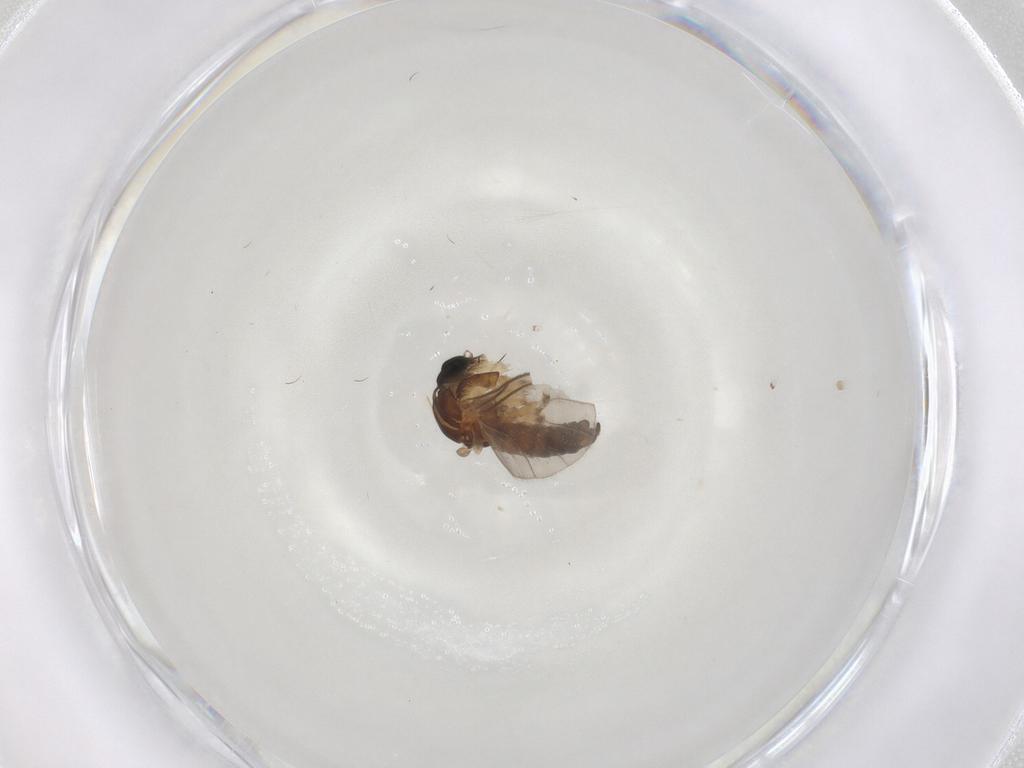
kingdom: Animalia
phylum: Arthropoda
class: Insecta
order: Diptera
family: Sciaridae
